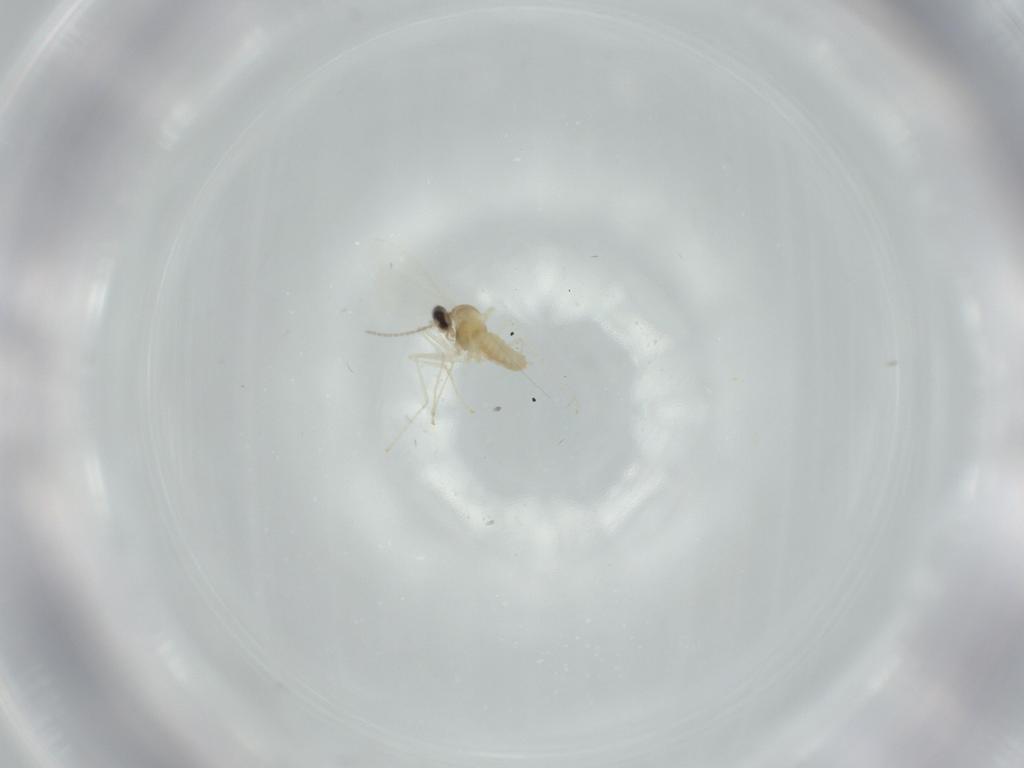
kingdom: Animalia
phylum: Arthropoda
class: Insecta
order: Diptera
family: Cecidomyiidae
